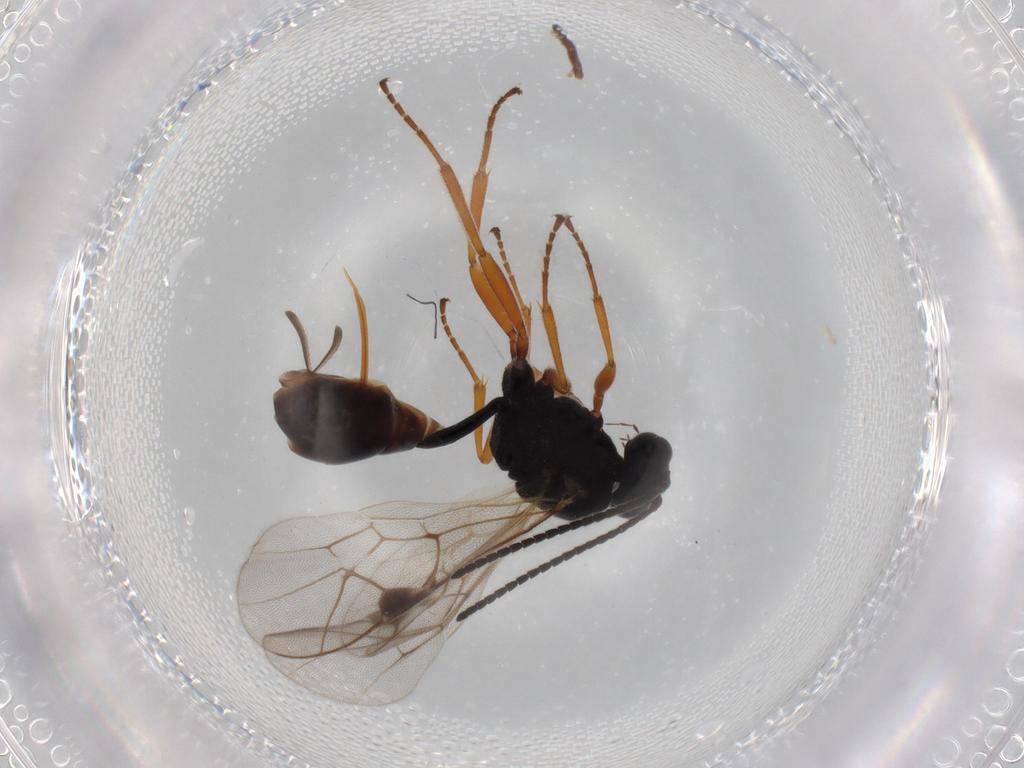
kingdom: Animalia
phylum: Arthropoda
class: Insecta
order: Hymenoptera
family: Ichneumonidae
